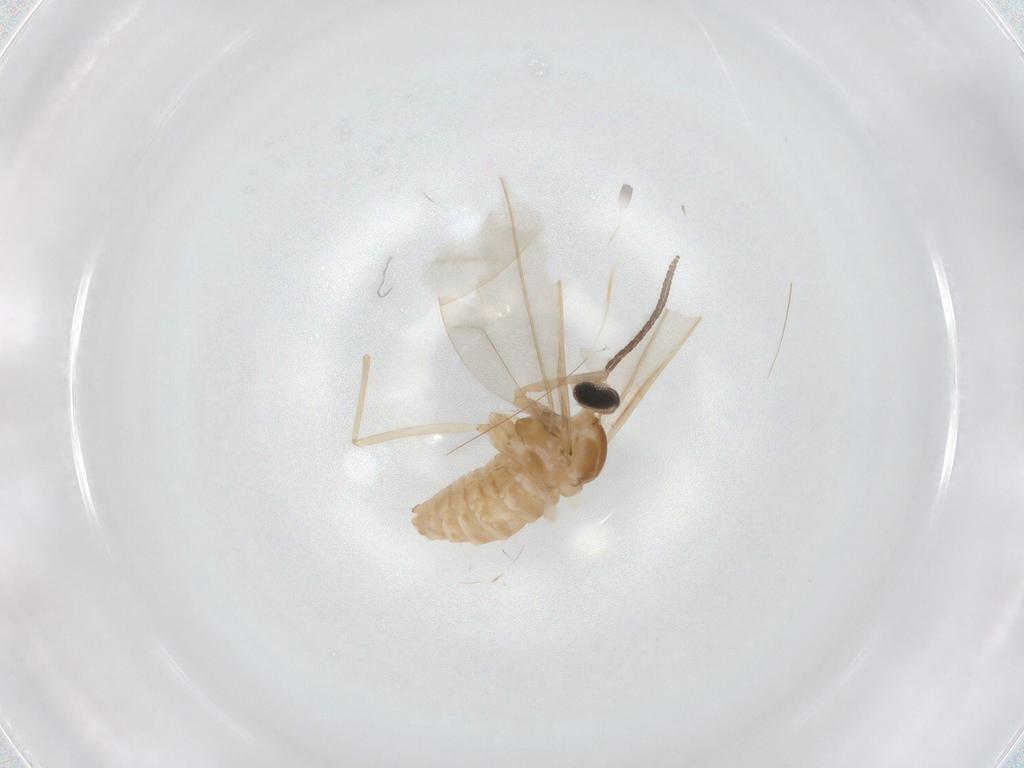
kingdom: Animalia
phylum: Arthropoda
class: Insecta
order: Diptera
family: Cecidomyiidae
